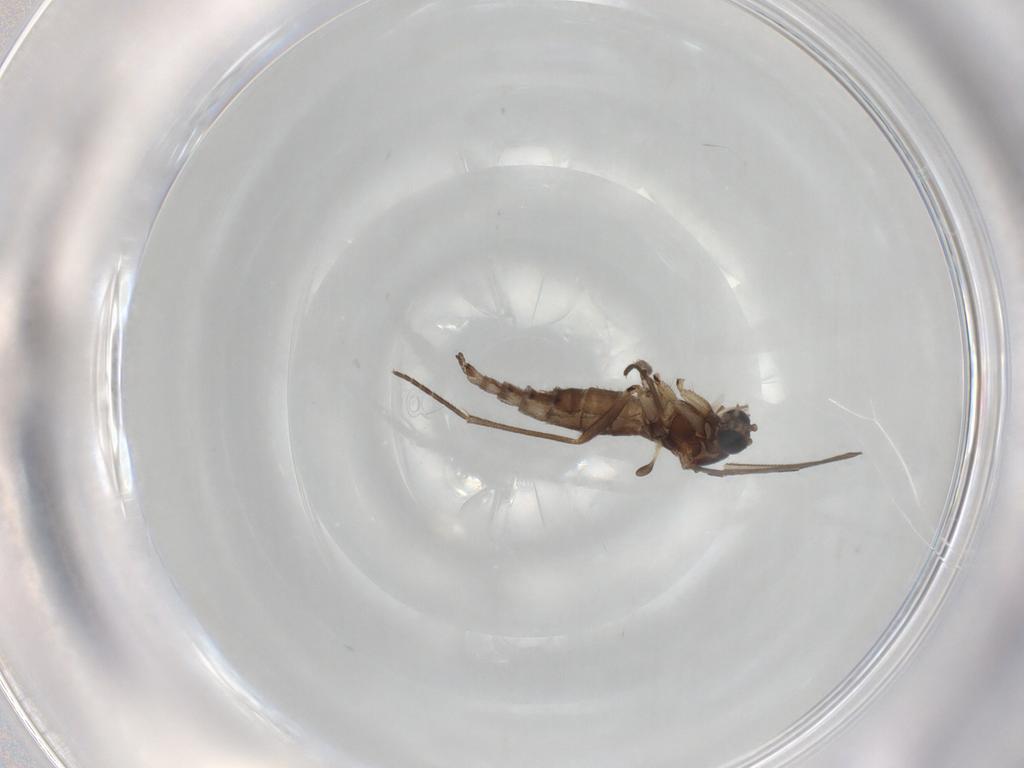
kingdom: Animalia
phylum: Arthropoda
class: Insecta
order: Diptera
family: Sciaridae
